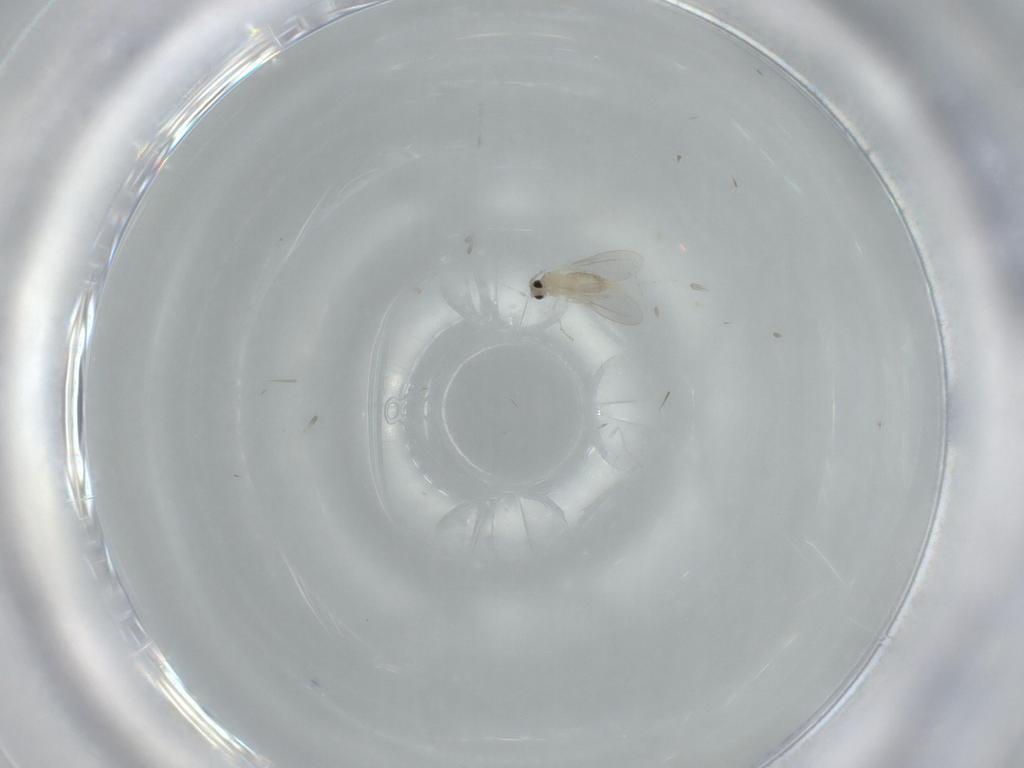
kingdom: Animalia
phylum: Arthropoda
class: Insecta
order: Diptera
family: Cecidomyiidae
